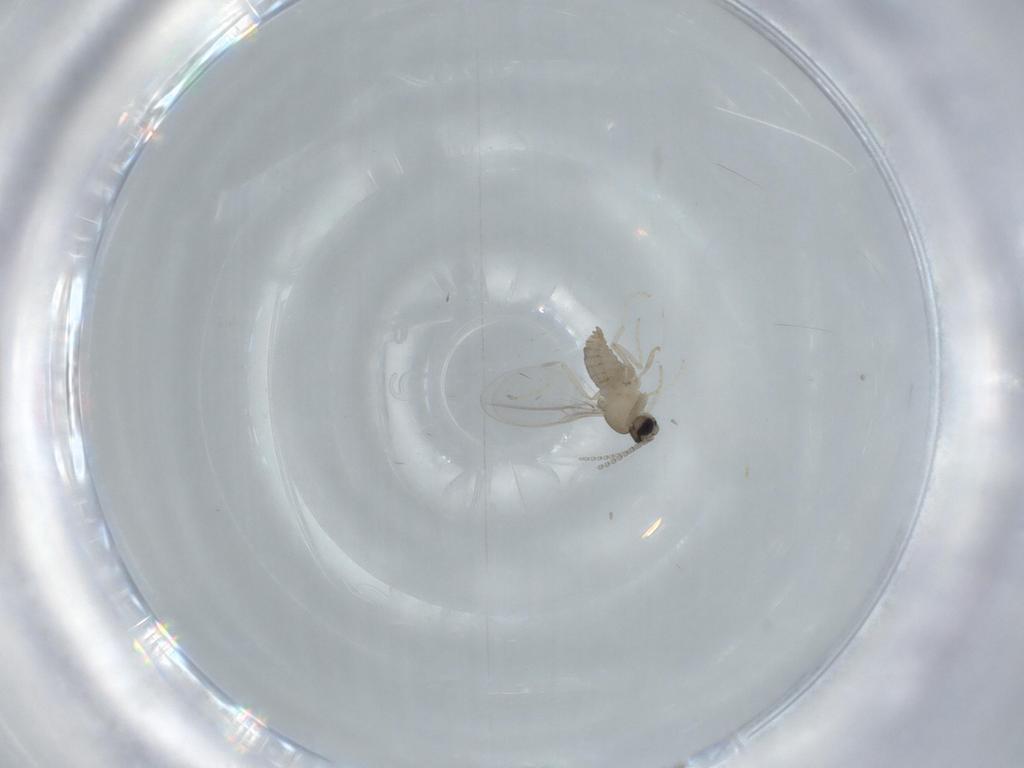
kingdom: Animalia
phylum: Arthropoda
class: Insecta
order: Diptera
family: Cecidomyiidae
